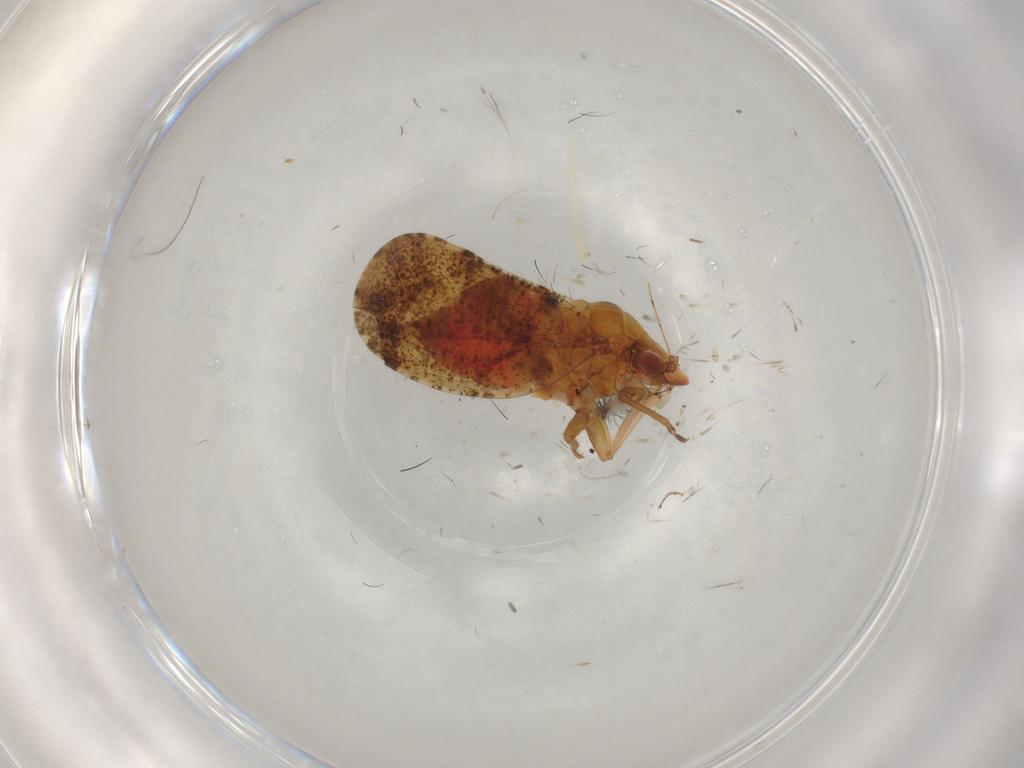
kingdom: Animalia
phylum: Arthropoda
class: Insecta
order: Hemiptera
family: Psyllidae
